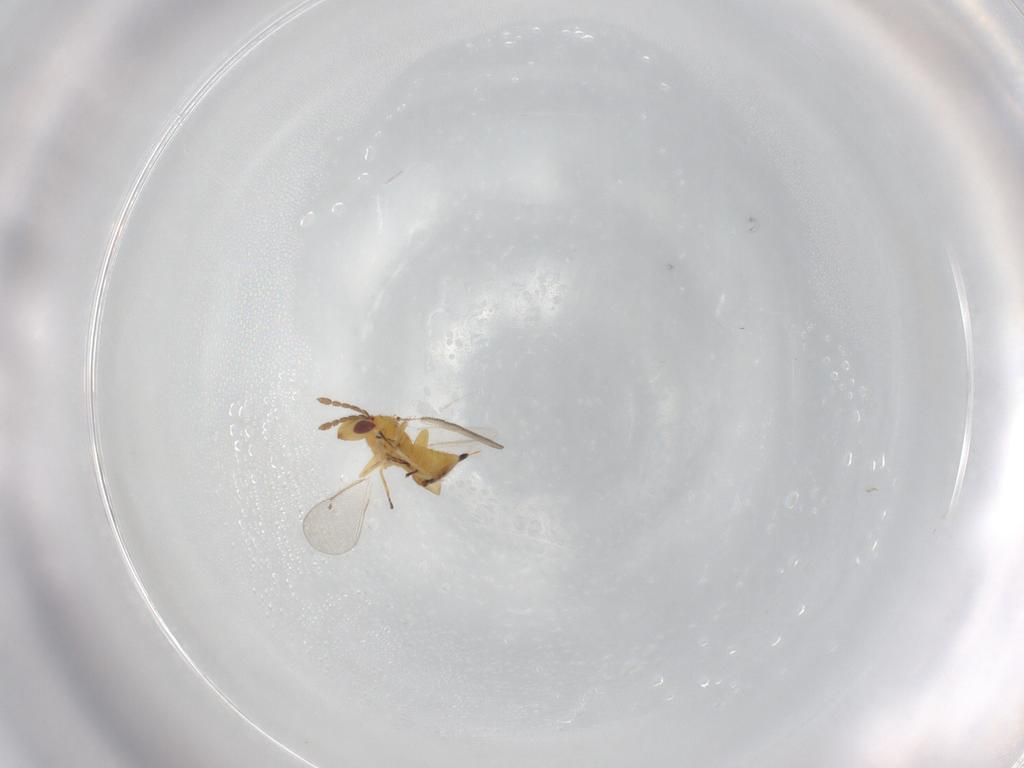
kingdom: Animalia
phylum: Arthropoda
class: Insecta
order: Hymenoptera
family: Eulophidae
